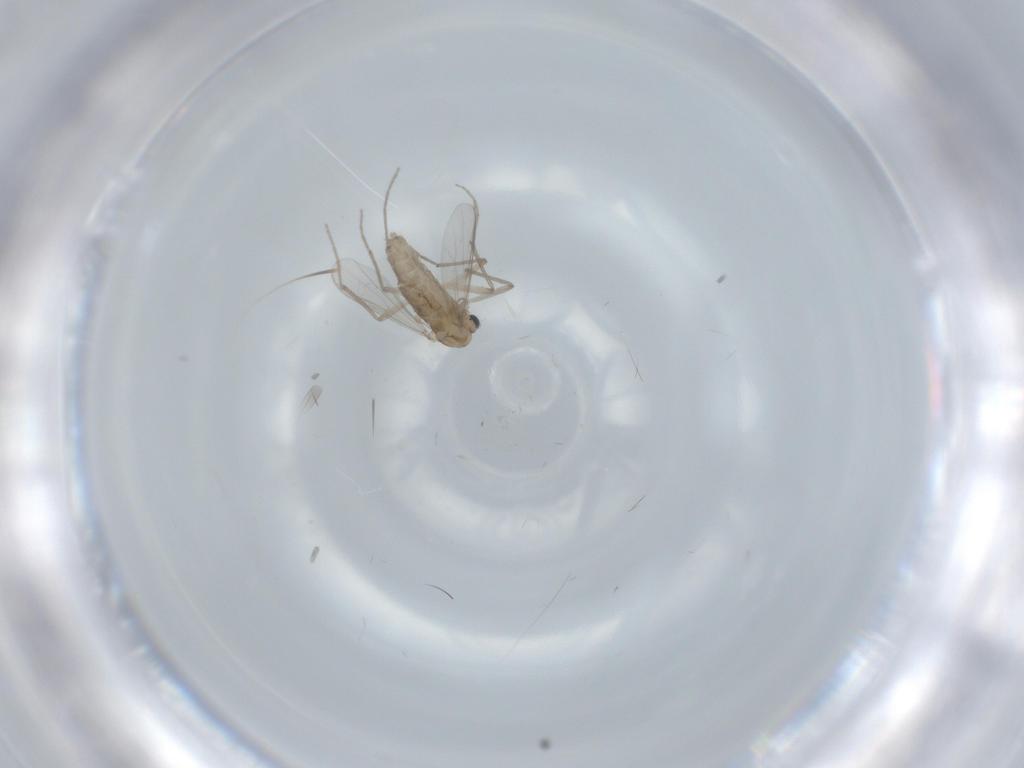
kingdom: Animalia
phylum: Arthropoda
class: Insecta
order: Diptera
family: Chironomidae
